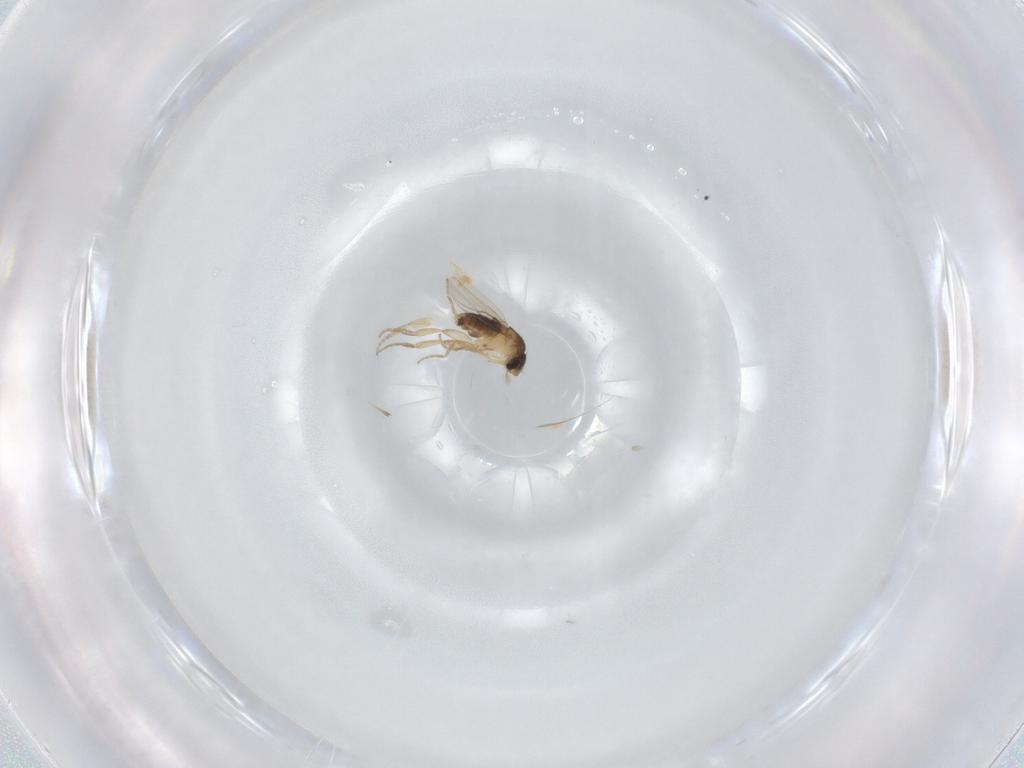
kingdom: Animalia
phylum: Arthropoda
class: Insecta
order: Diptera
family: Phoridae
